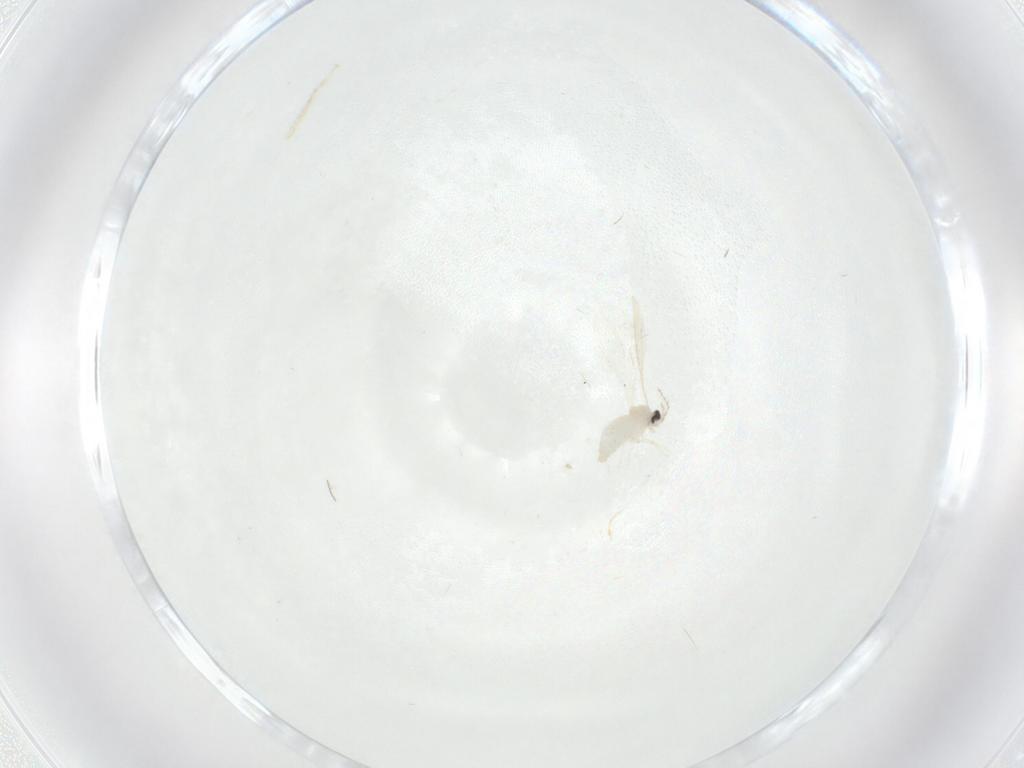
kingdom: Animalia
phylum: Arthropoda
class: Insecta
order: Diptera
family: Cecidomyiidae
